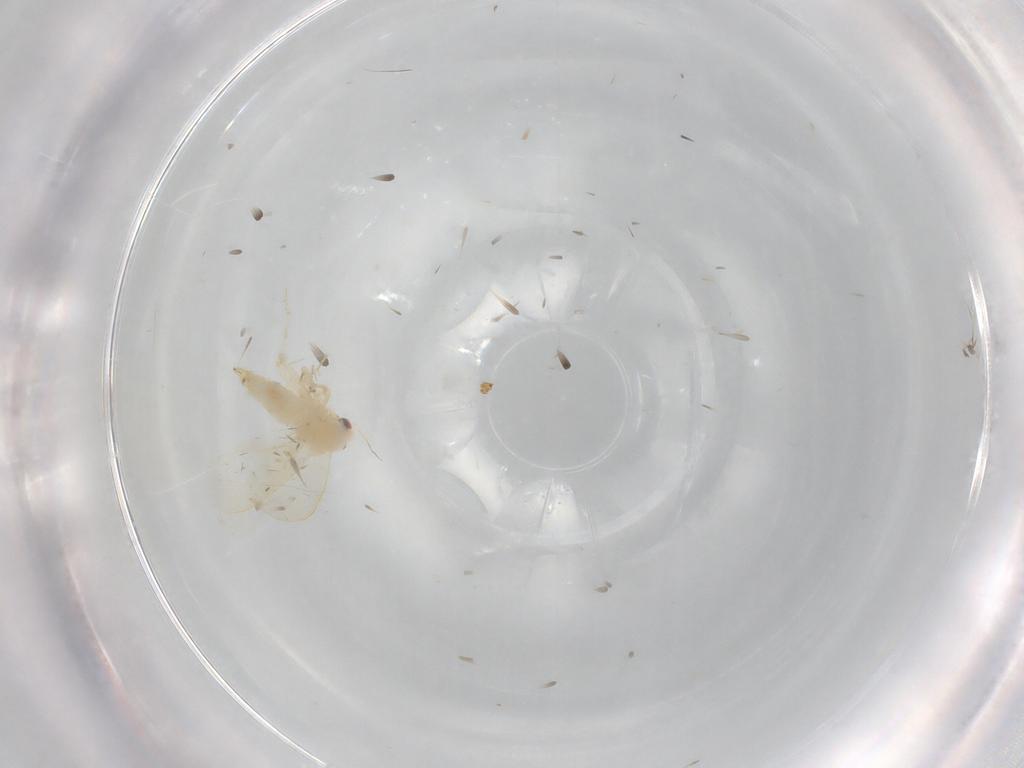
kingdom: Animalia
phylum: Arthropoda
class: Insecta
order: Hemiptera
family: Aleyrodidae
